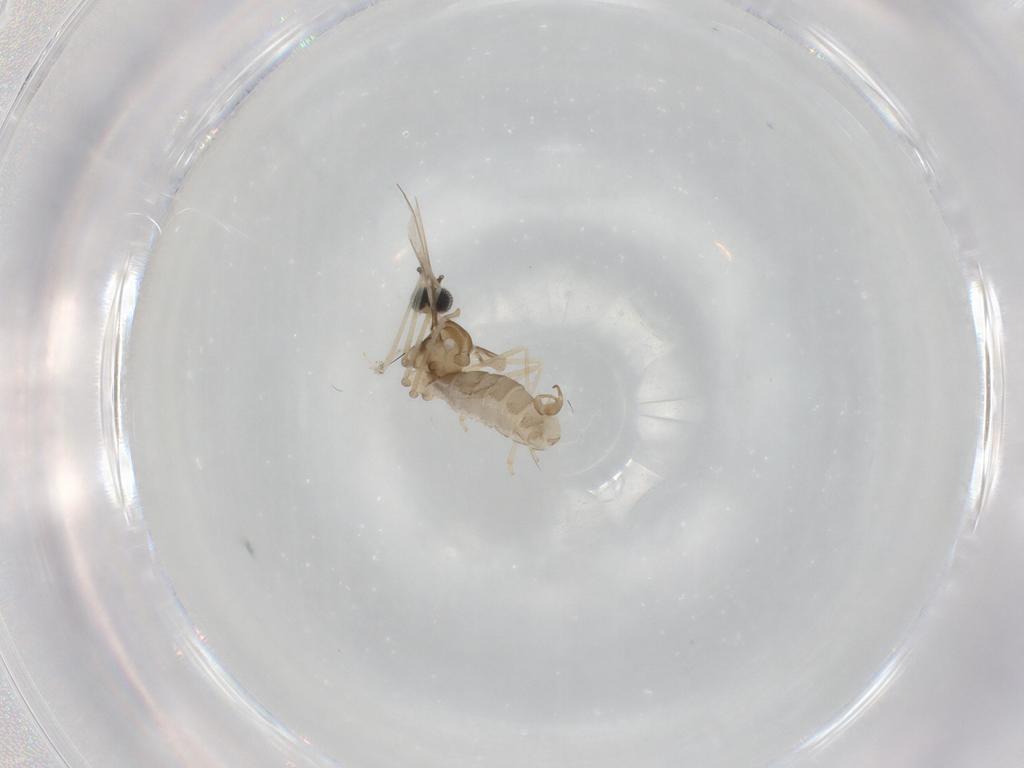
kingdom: Animalia
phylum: Arthropoda
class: Insecta
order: Diptera
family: Cecidomyiidae
